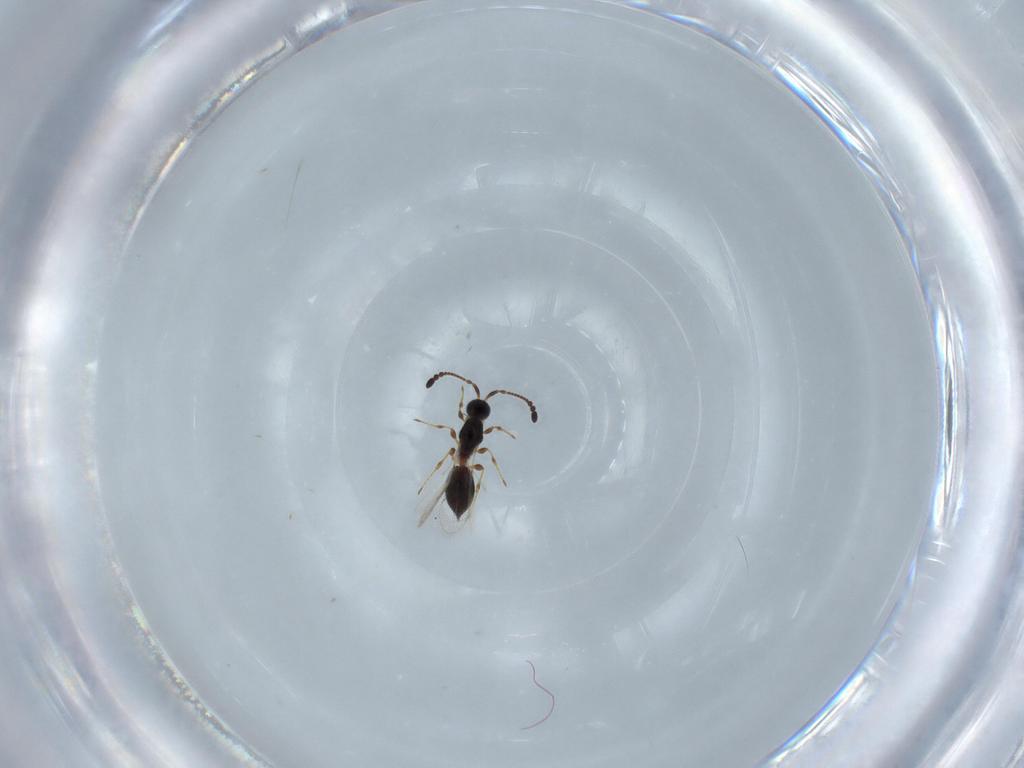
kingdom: Animalia
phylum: Arthropoda
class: Insecta
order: Hymenoptera
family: Diapriidae
